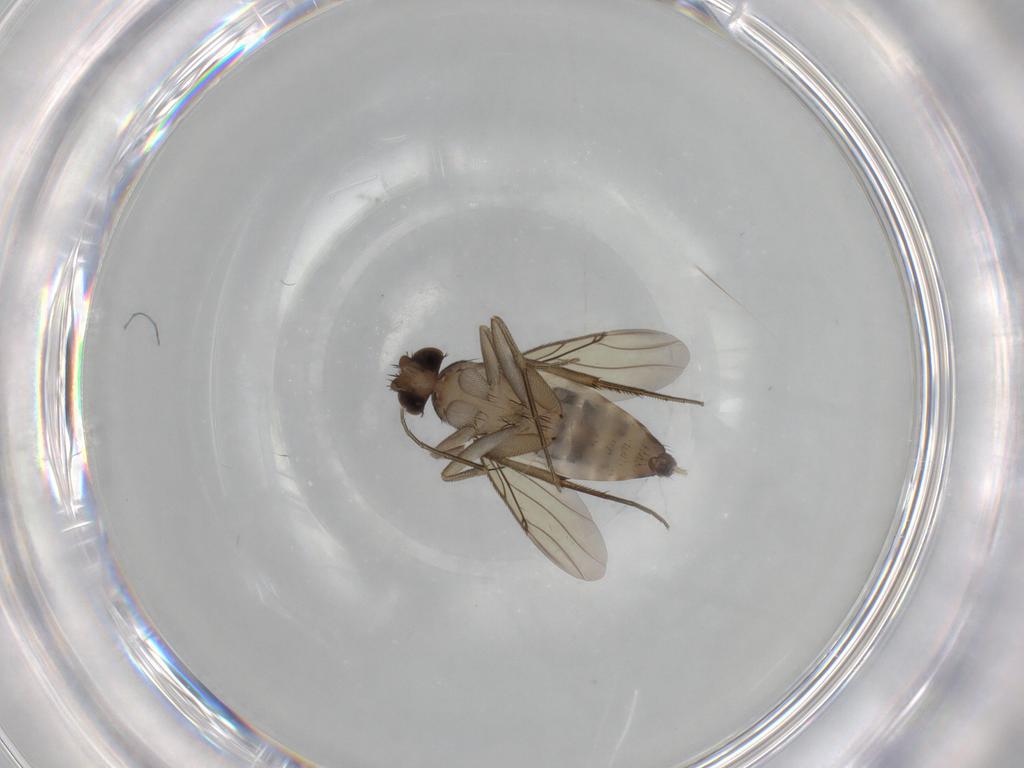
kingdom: Animalia
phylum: Arthropoda
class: Insecta
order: Diptera
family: Phoridae
